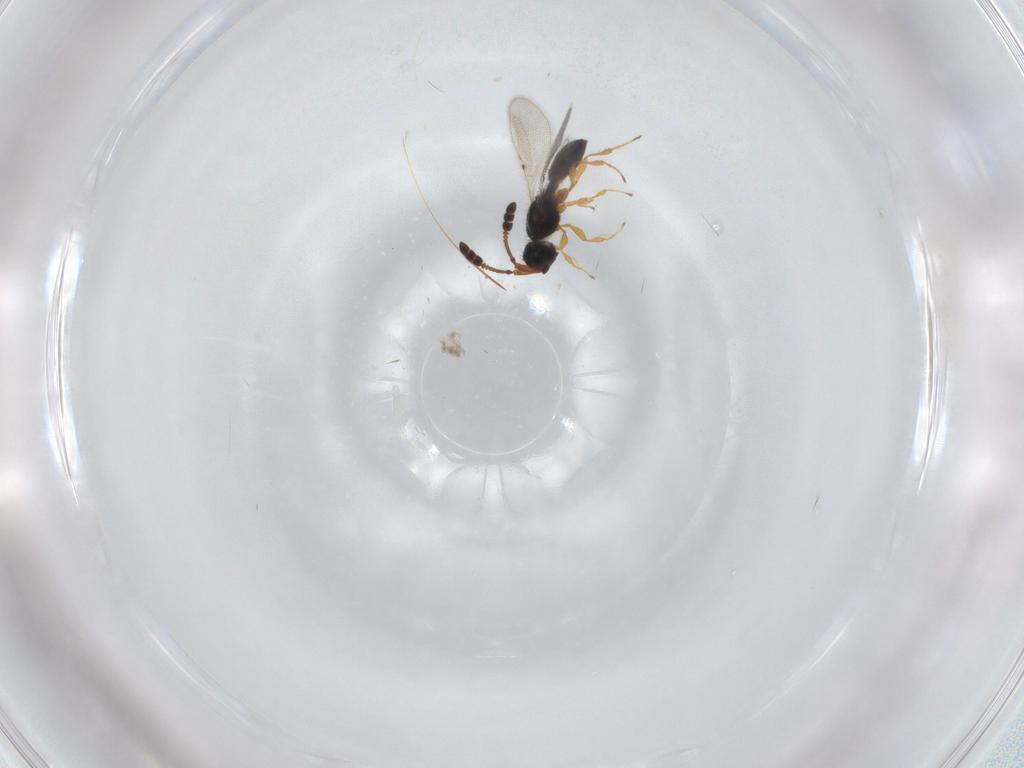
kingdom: Animalia
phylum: Arthropoda
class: Insecta
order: Hymenoptera
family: Diapriidae
